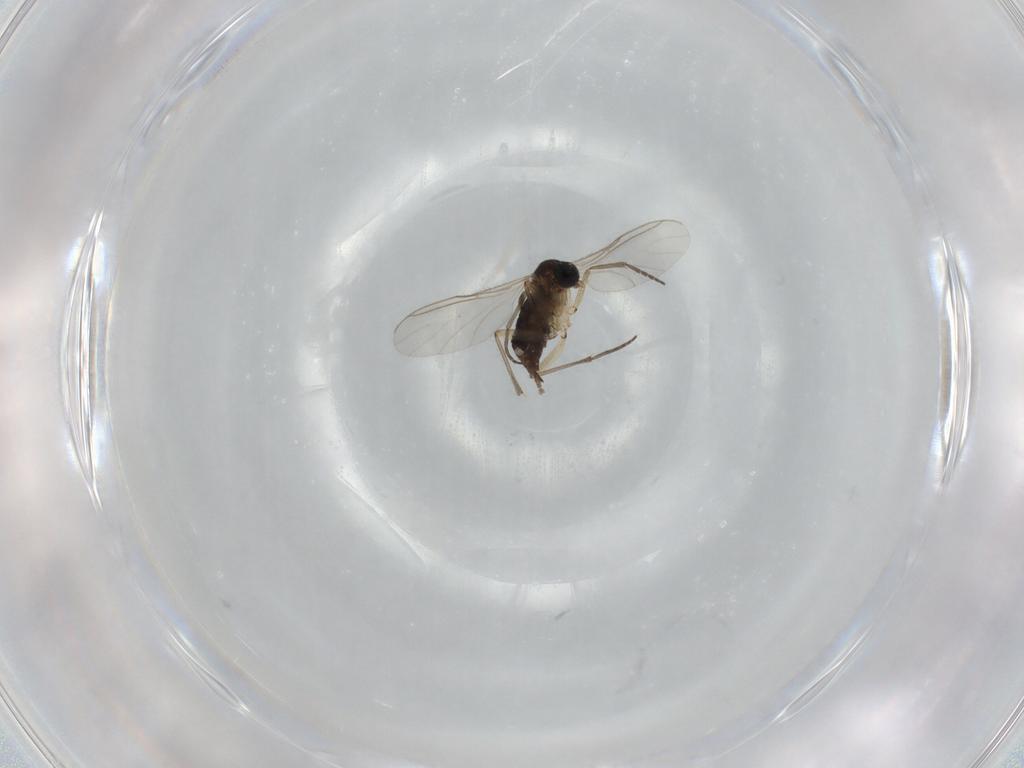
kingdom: Animalia
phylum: Arthropoda
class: Insecta
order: Diptera
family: Sciaridae
